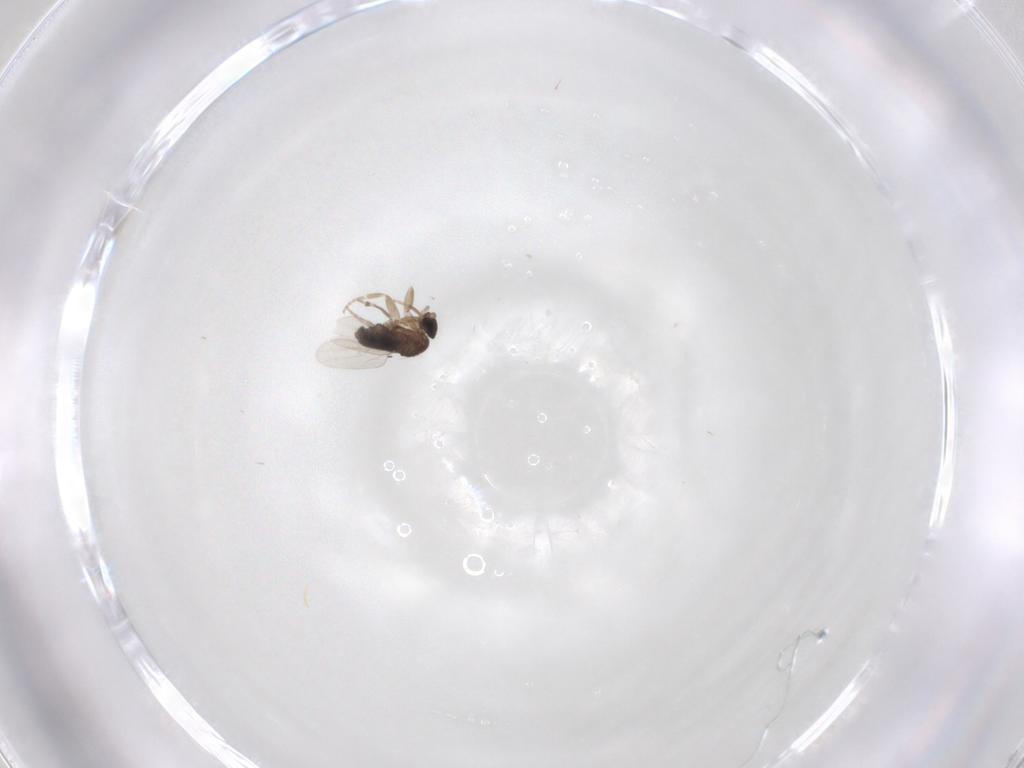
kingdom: Animalia
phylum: Arthropoda
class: Insecta
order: Diptera
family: Phoridae
